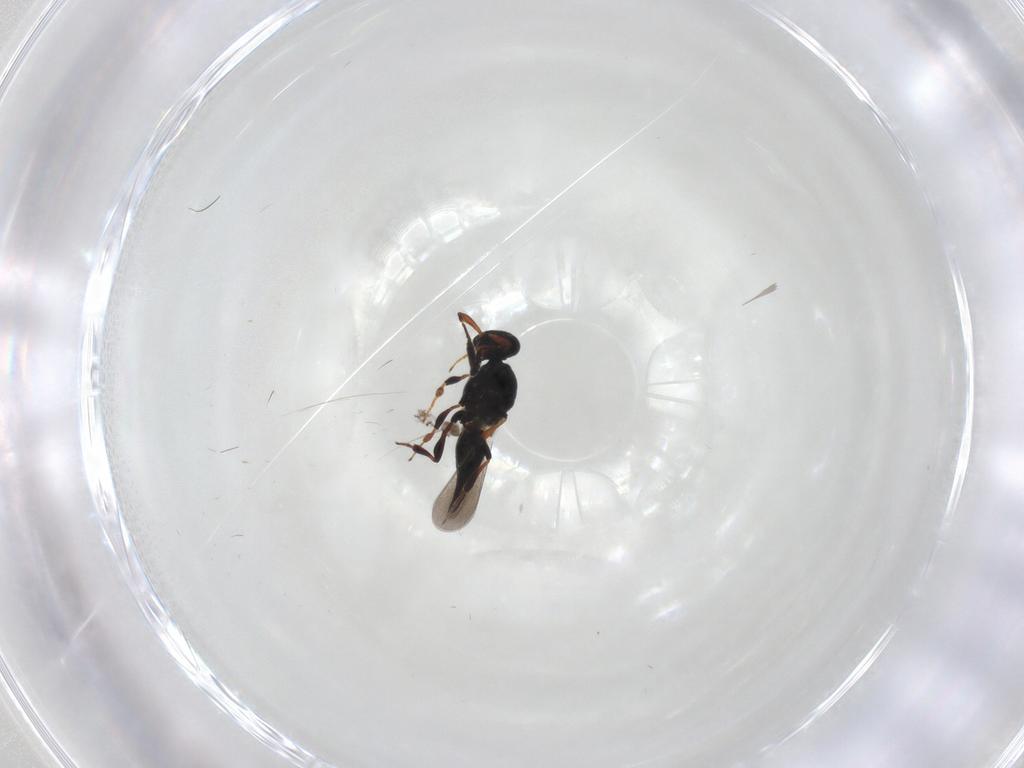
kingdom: Animalia
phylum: Arthropoda
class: Insecta
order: Hymenoptera
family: Platygastridae
